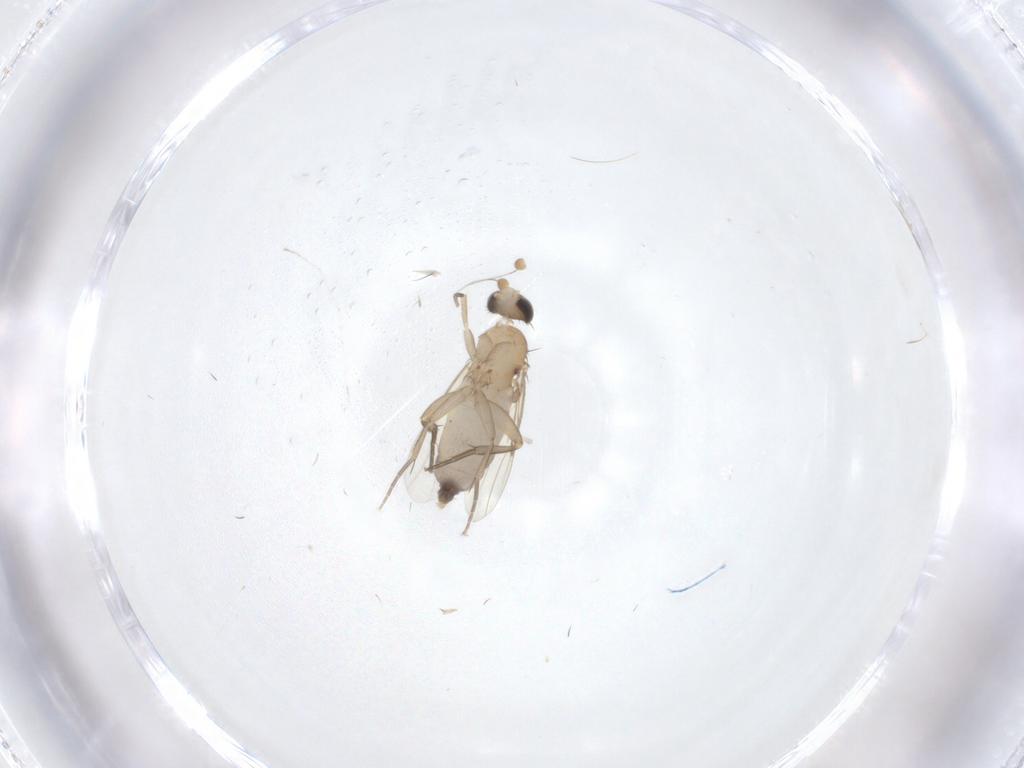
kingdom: Animalia
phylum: Arthropoda
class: Insecta
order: Diptera
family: Phoridae
